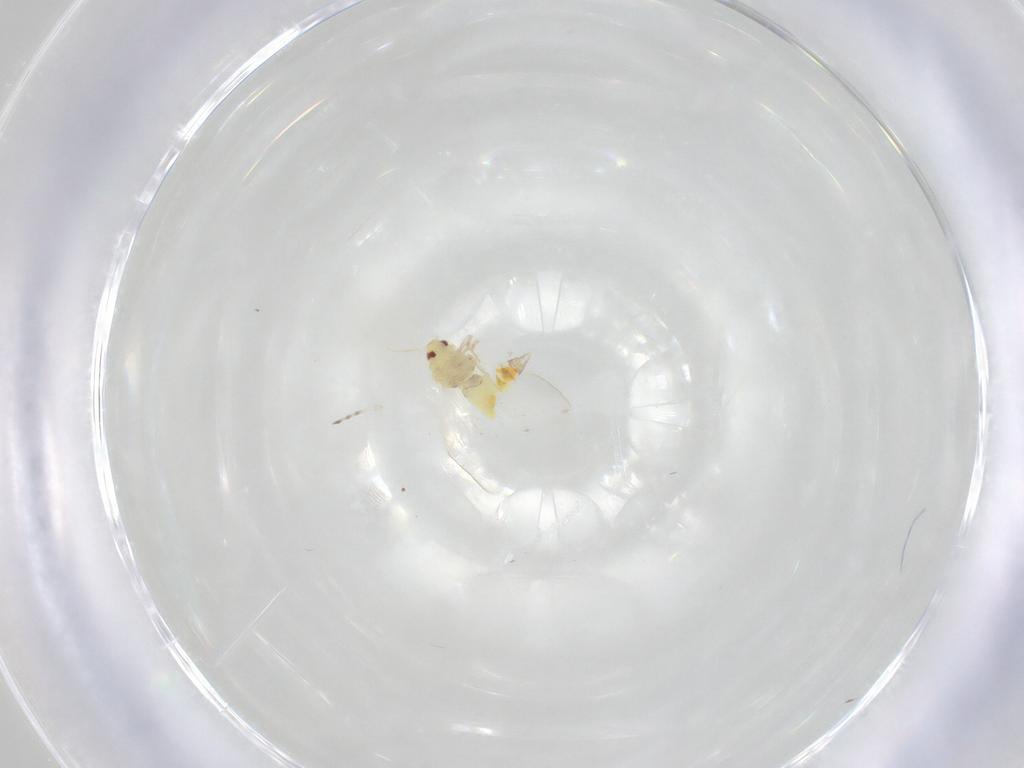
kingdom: Animalia
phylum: Arthropoda
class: Insecta
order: Hemiptera
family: Aleyrodidae
